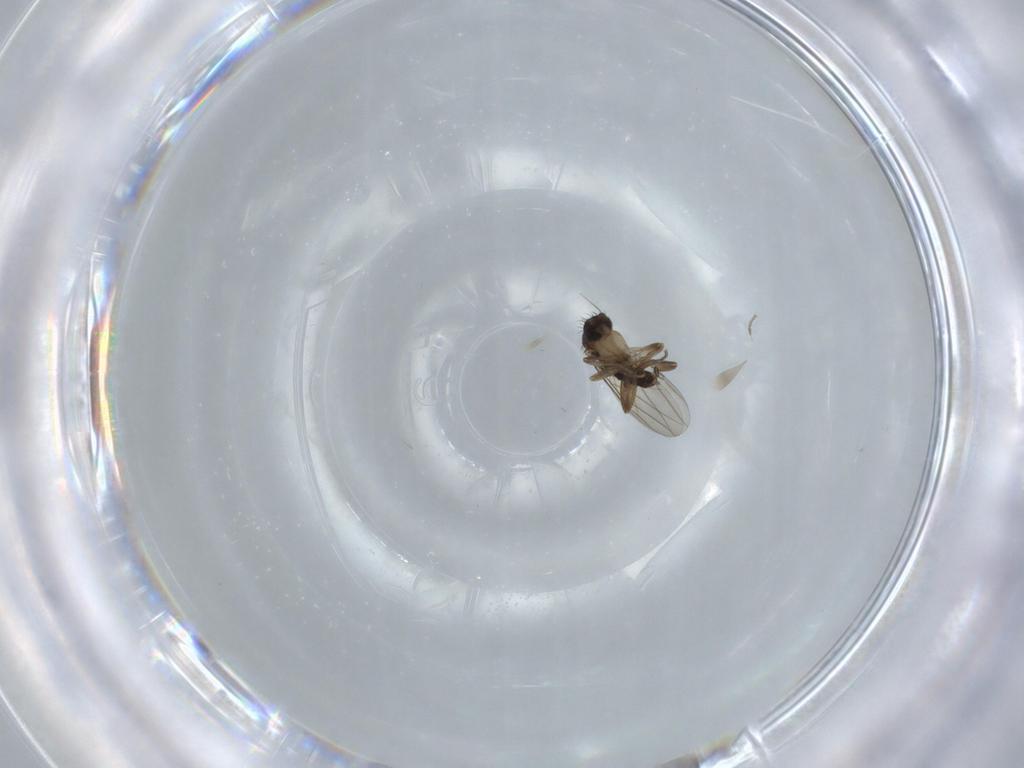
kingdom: Animalia
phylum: Arthropoda
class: Insecta
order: Diptera
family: Phoridae
